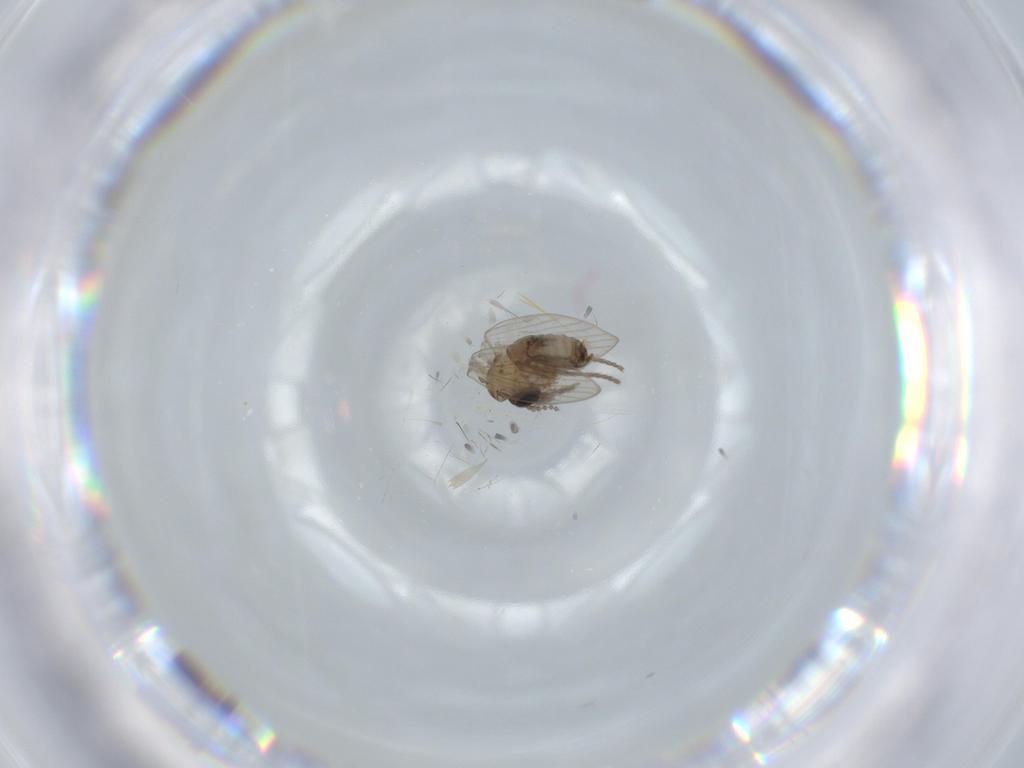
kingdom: Animalia
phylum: Arthropoda
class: Insecta
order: Diptera
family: Psychodidae
